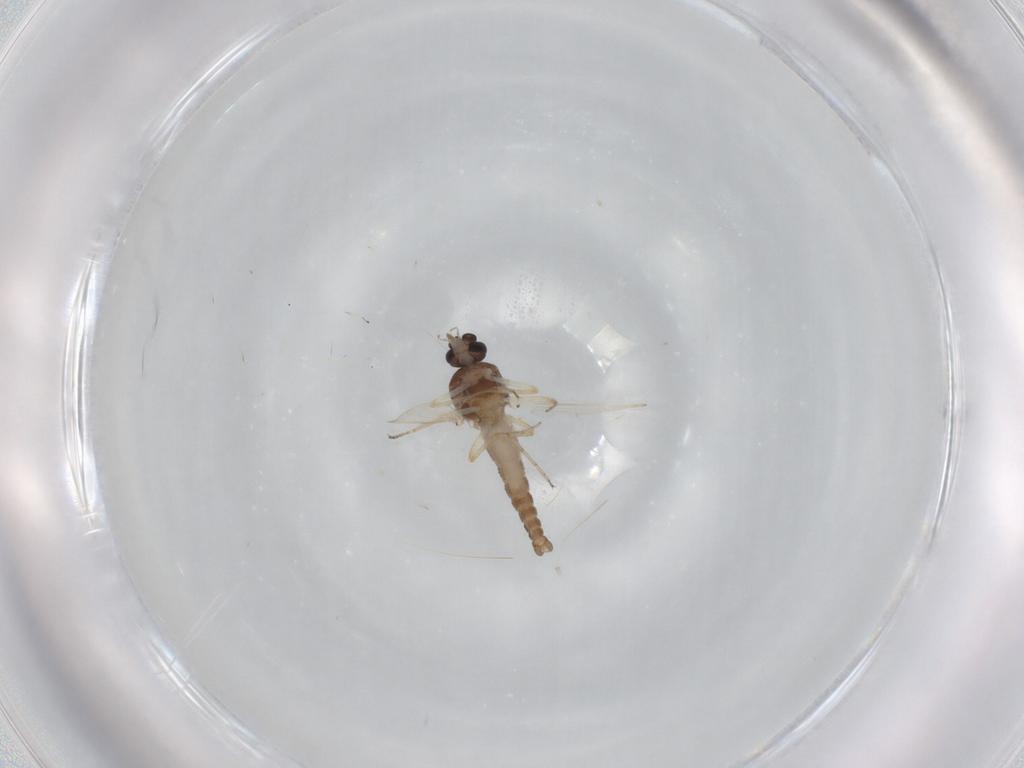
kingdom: Animalia
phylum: Arthropoda
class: Insecta
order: Diptera
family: Ceratopogonidae
